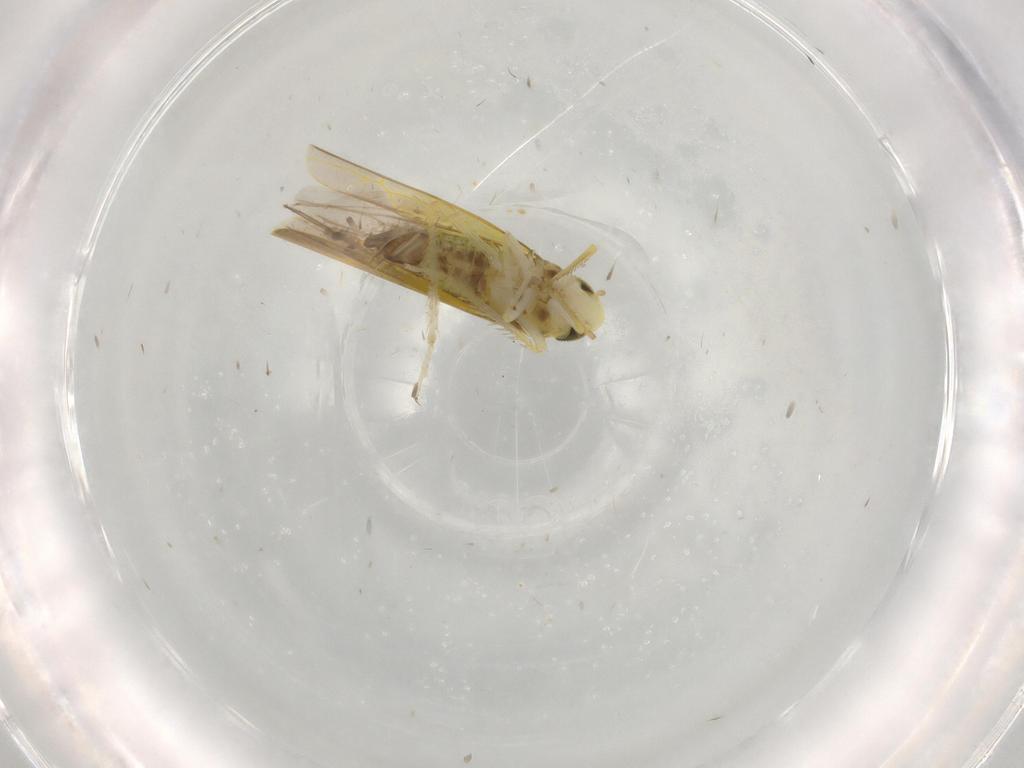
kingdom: Animalia
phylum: Arthropoda
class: Insecta
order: Hemiptera
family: Cicadellidae
